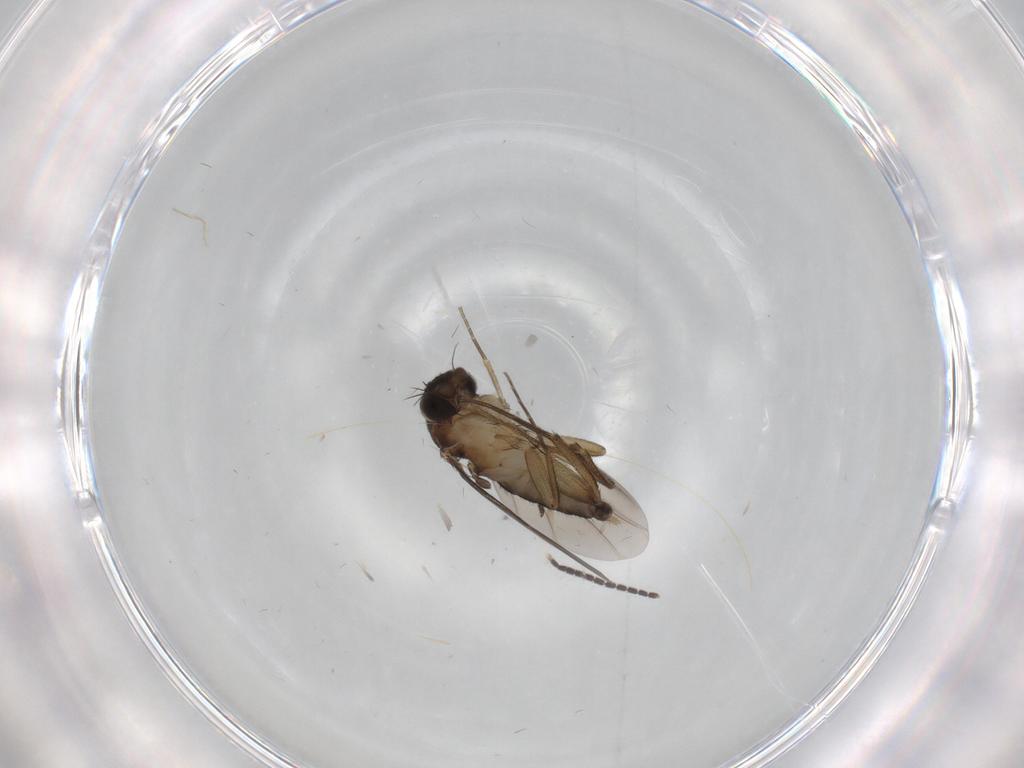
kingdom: Animalia
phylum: Arthropoda
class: Insecta
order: Diptera
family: Phoridae
